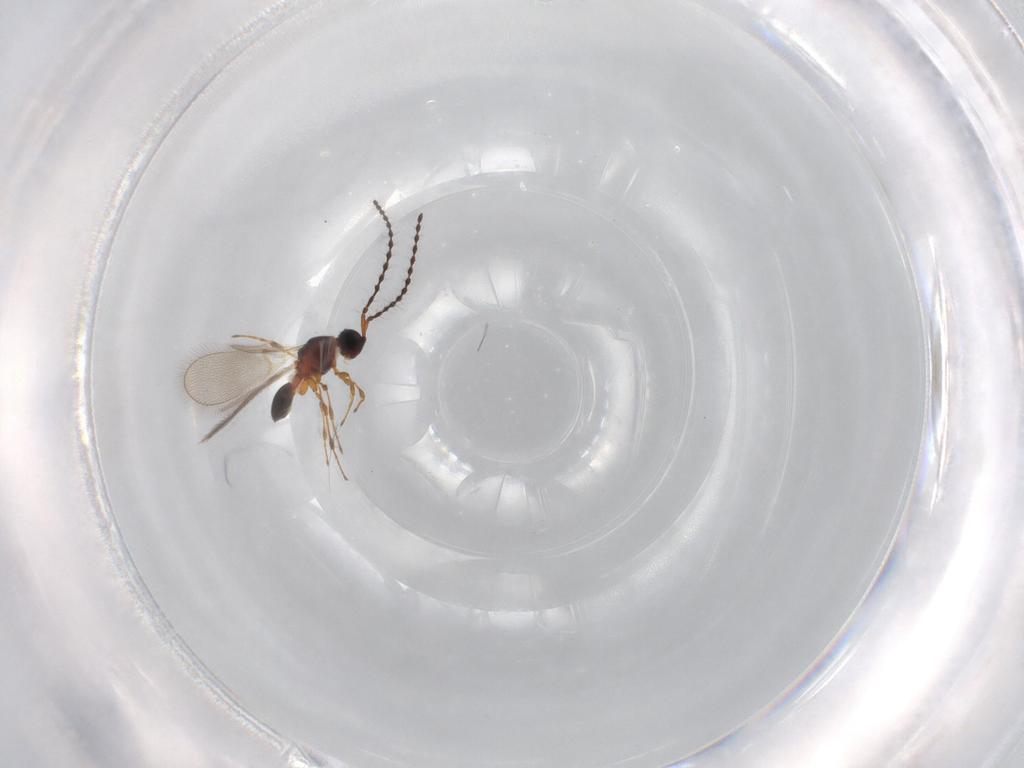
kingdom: Animalia
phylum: Arthropoda
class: Insecta
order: Hymenoptera
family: Diapriidae
